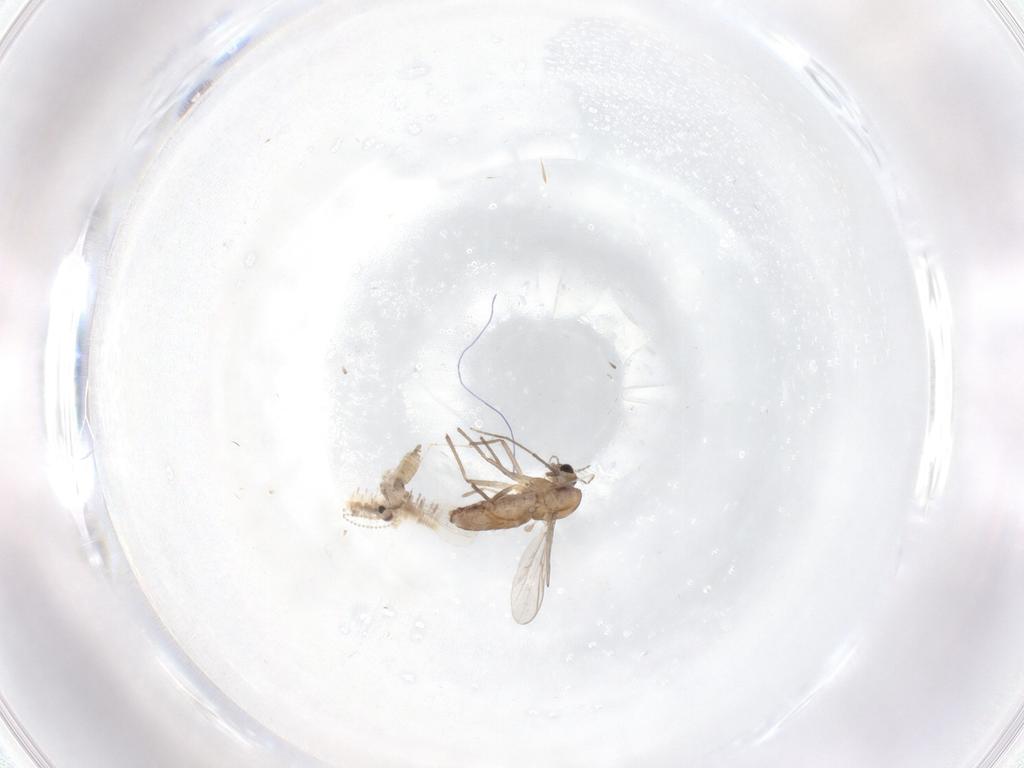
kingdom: Animalia
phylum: Arthropoda
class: Insecta
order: Diptera
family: Chironomidae
